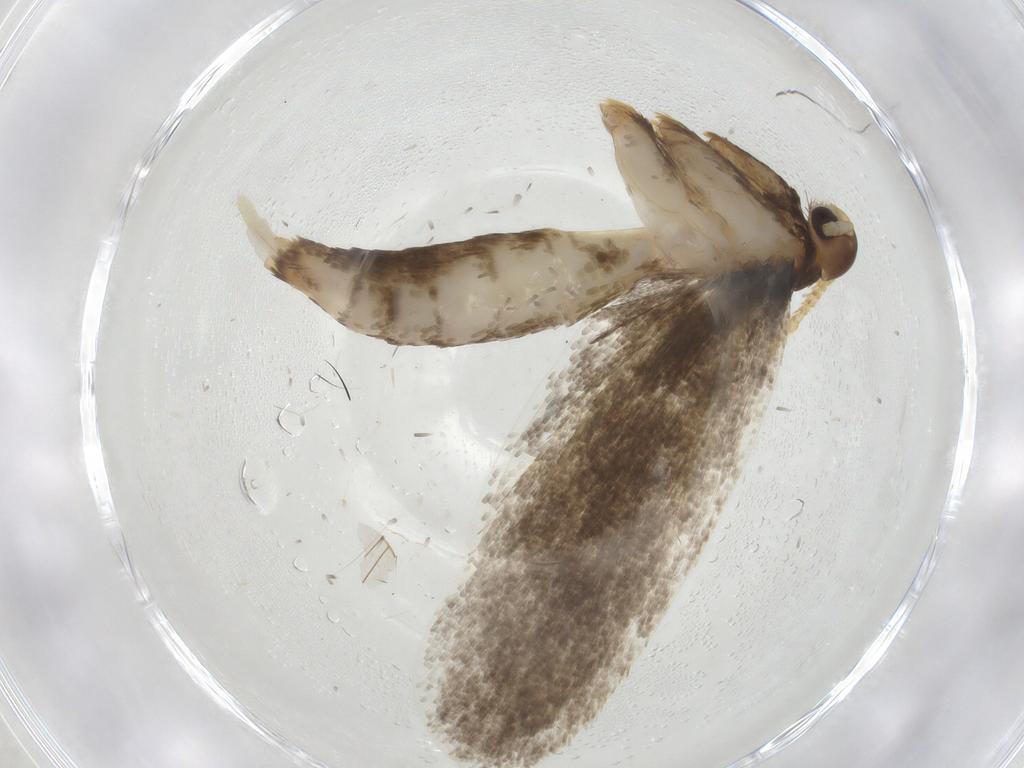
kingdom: Animalia
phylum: Arthropoda
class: Insecta
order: Lepidoptera
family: Lecithoceridae
